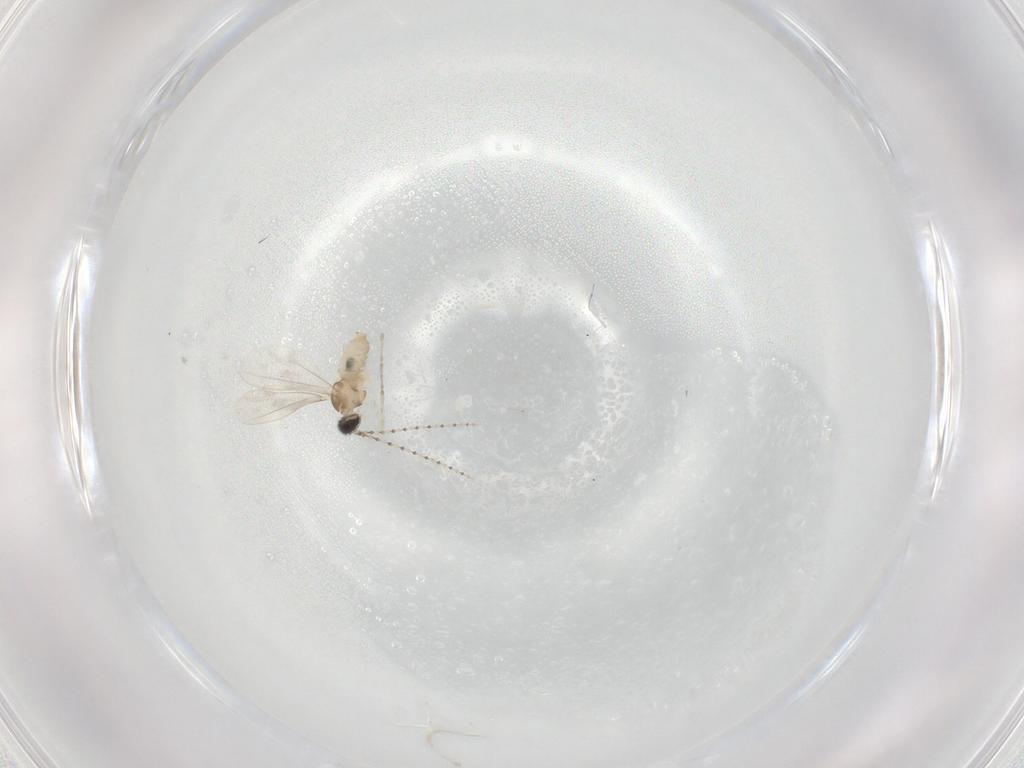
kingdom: Animalia
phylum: Arthropoda
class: Insecta
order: Diptera
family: Cecidomyiidae
